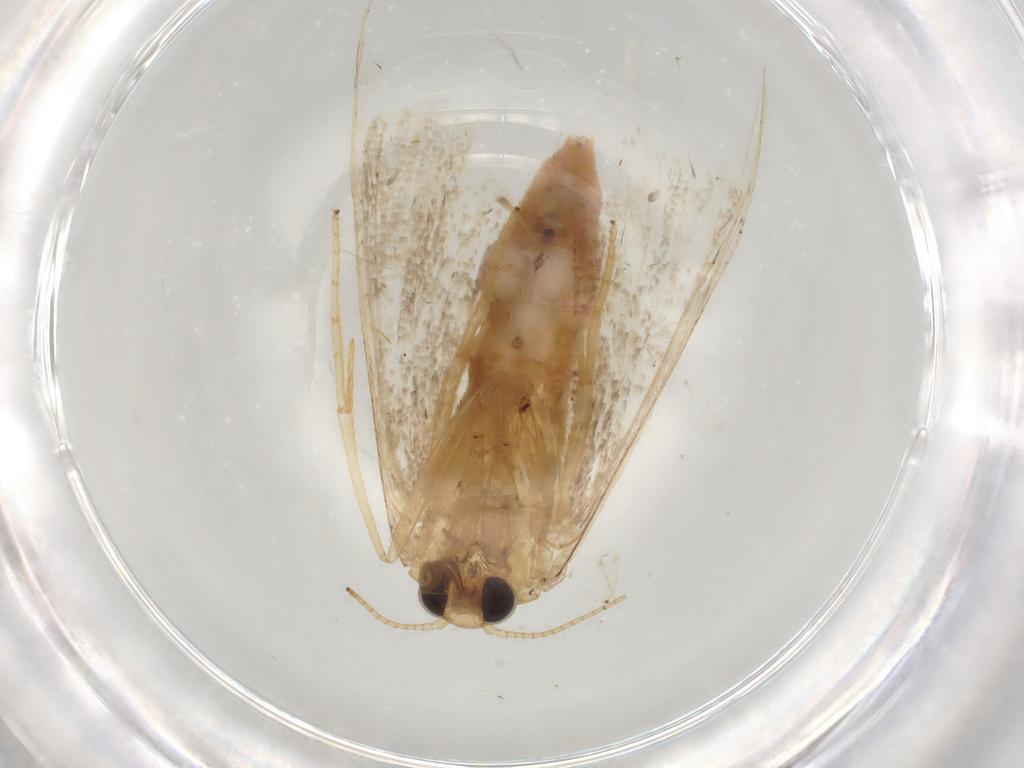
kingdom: Animalia
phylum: Arthropoda
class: Insecta
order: Lepidoptera
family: Geometridae
